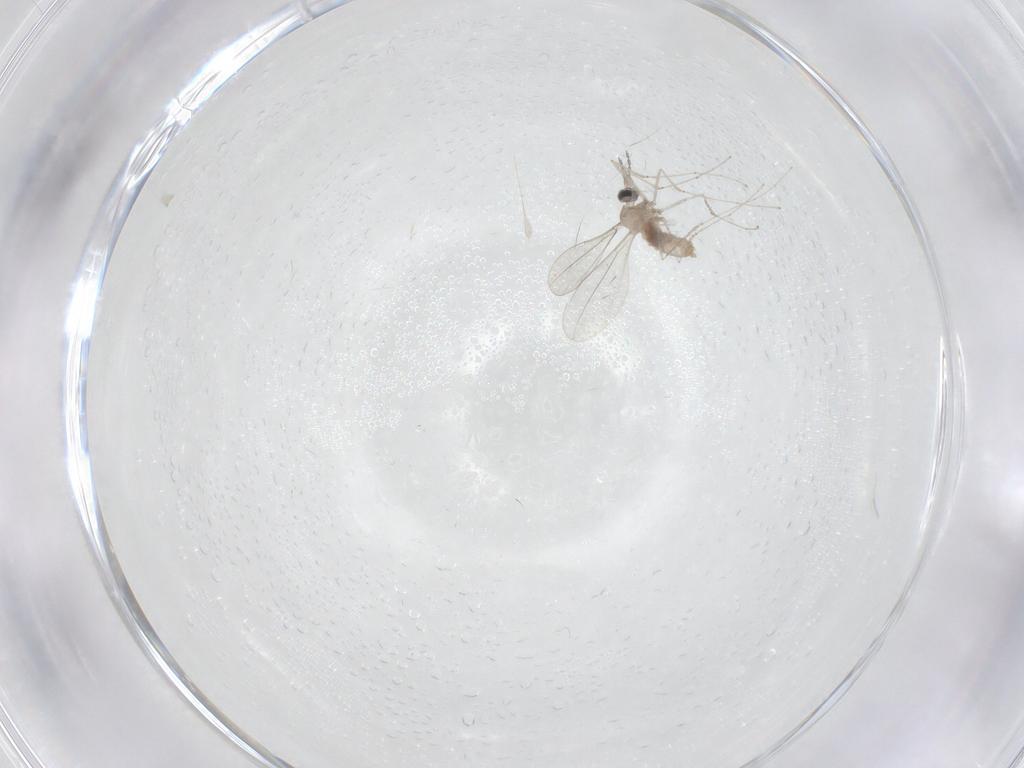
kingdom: Animalia
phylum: Arthropoda
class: Insecta
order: Diptera
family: Cecidomyiidae
